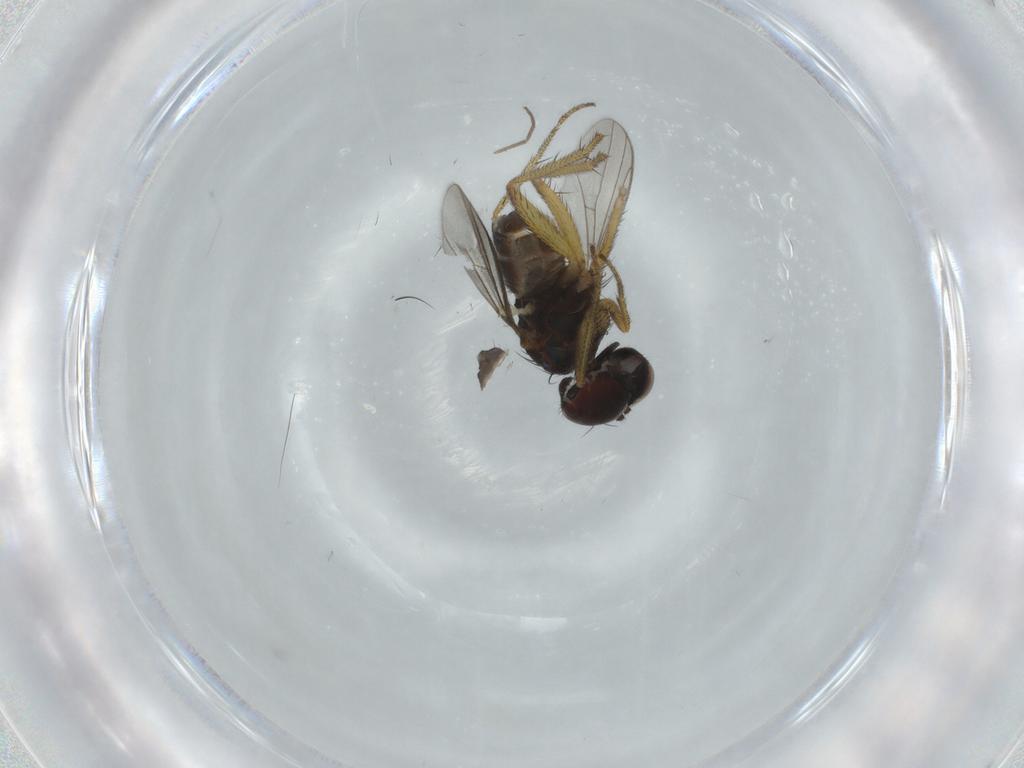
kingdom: Animalia
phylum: Arthropoda
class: Insecta
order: Diptera
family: Dolichopodidae
